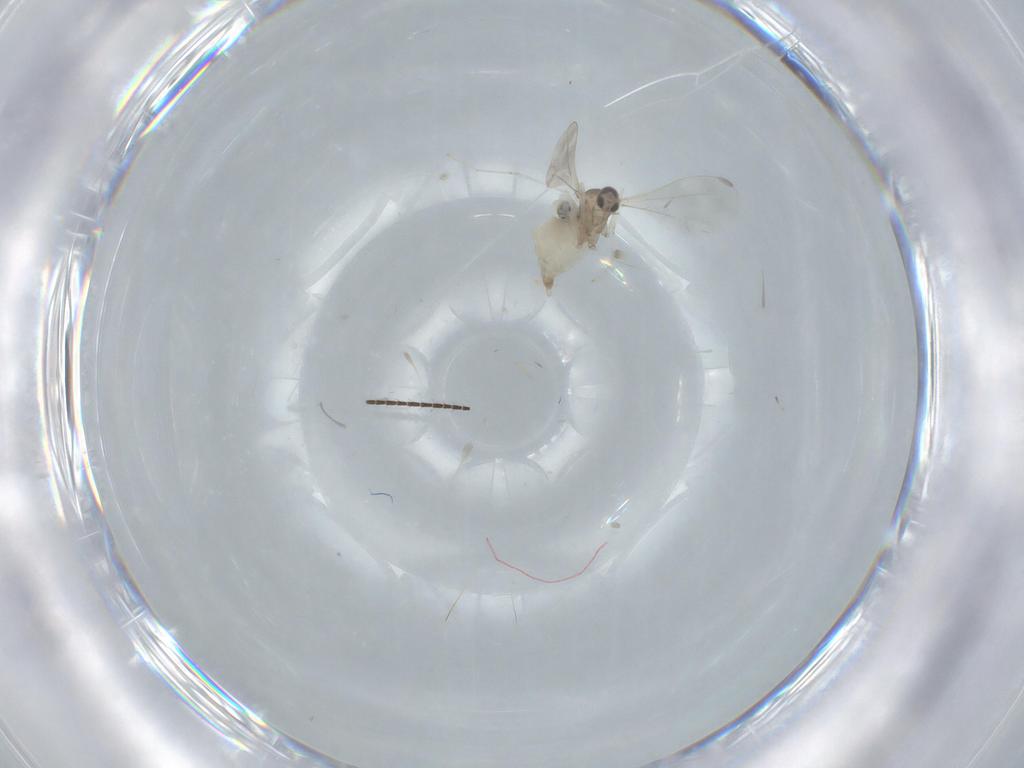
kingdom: Animalia
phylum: Arthropoda
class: Insecta
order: Diptera
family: Cecidomyiidae
